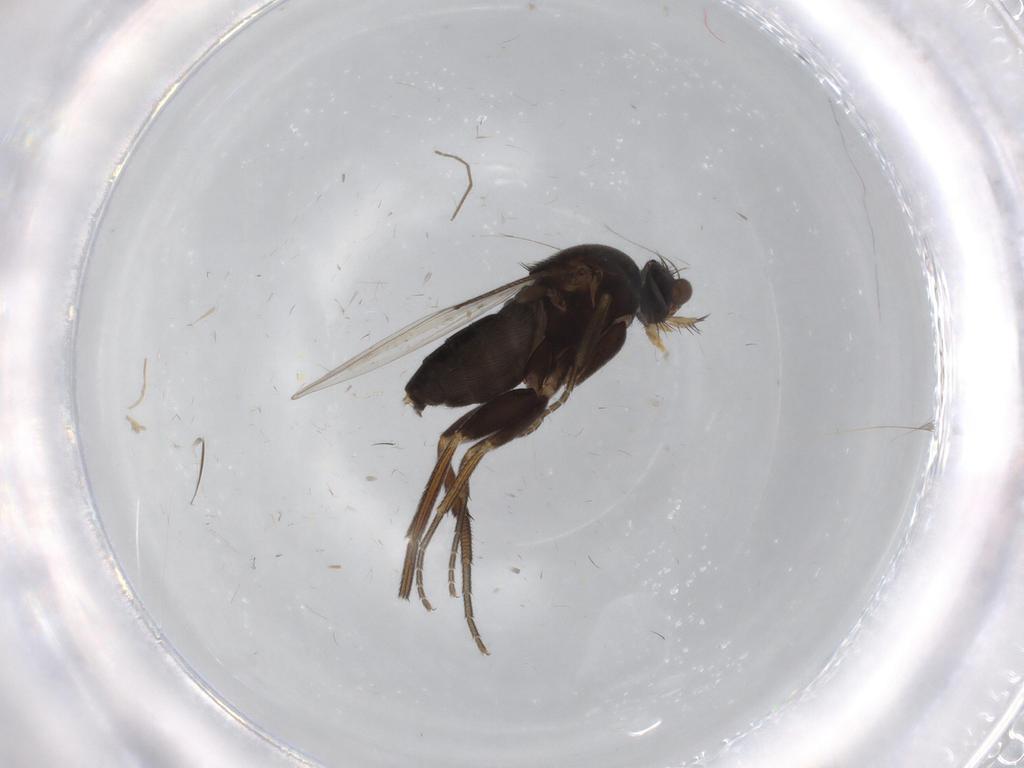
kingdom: Animalia
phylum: Arthropoda
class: Insecta
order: Diptera
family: Phoridae
